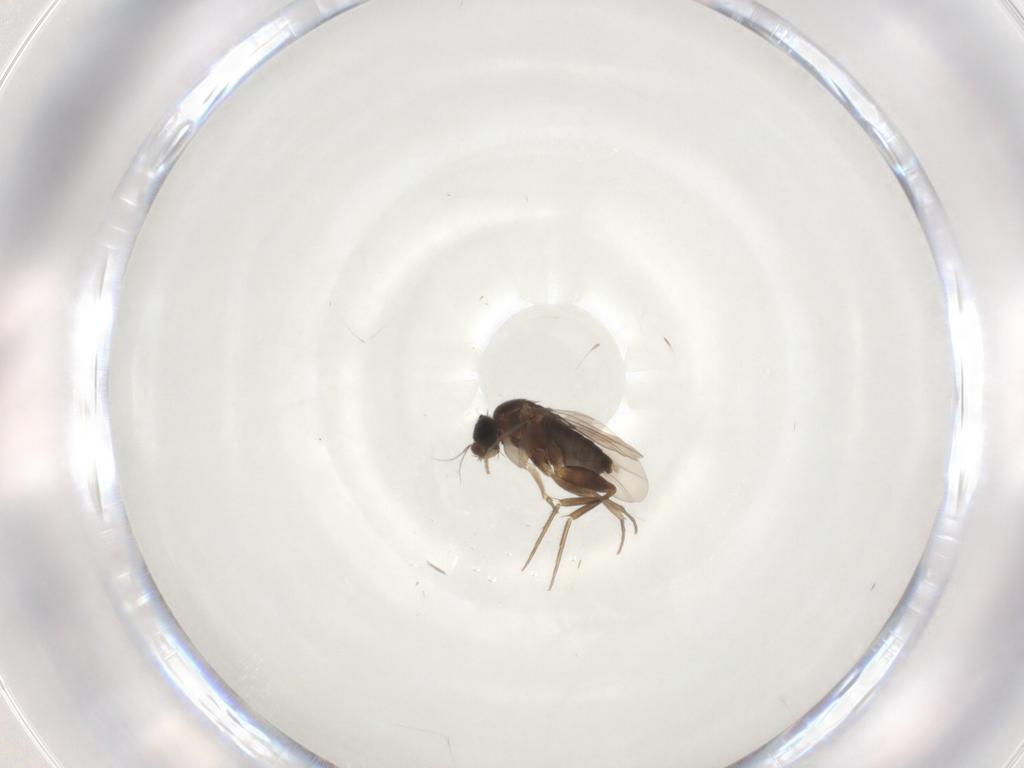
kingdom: Animalia
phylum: Arthropoda
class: Insecta
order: Diptera
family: Phoridae
